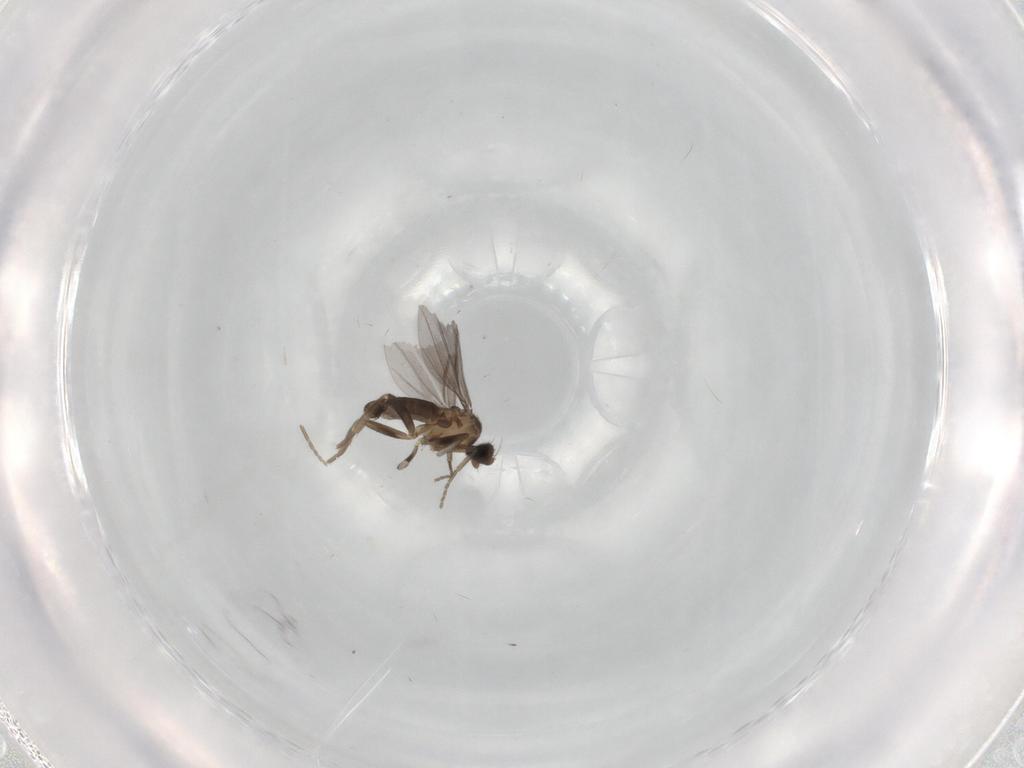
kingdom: Animalia
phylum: Arthropoda
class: Insecta
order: Diptera
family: Phoridae
